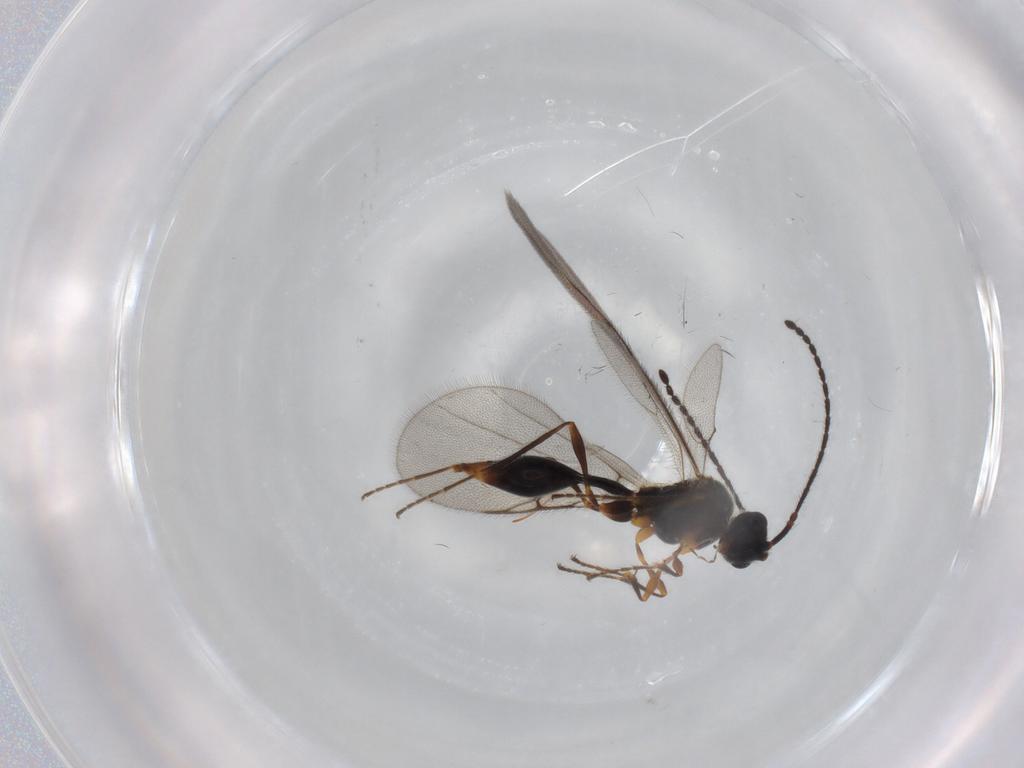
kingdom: Animalia
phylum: Arthropoda
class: Insecta
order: Hymenoptera
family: Diapriidae
